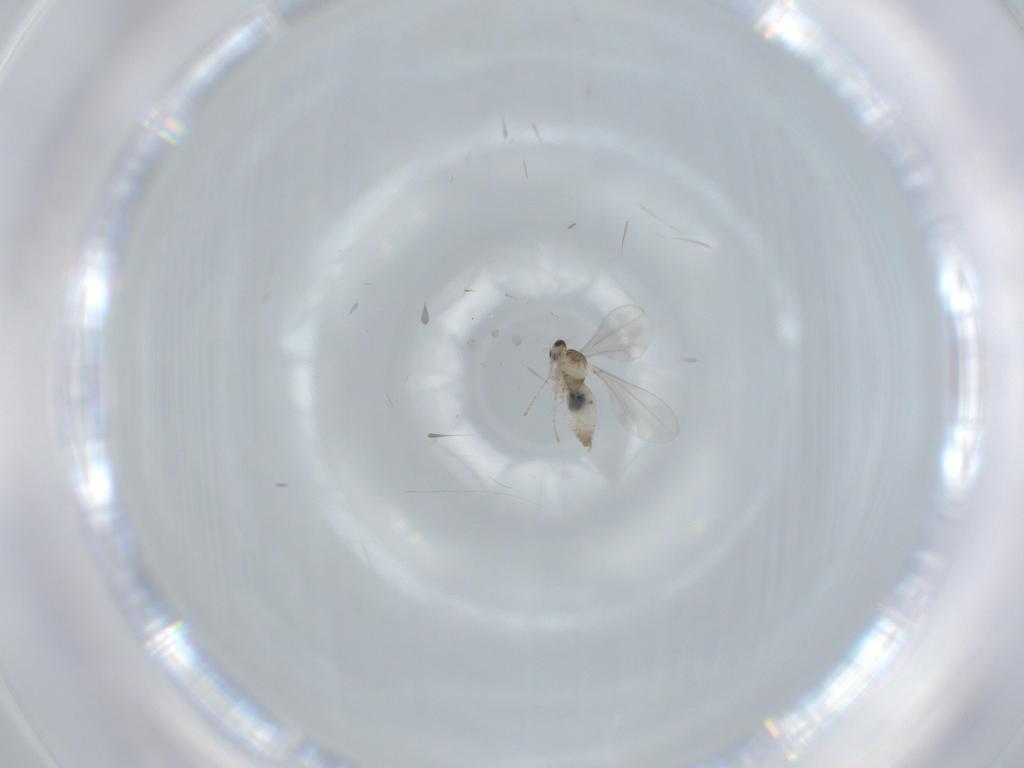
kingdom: Animalia
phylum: Arthropoda
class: Insecta
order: Diptera
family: Cecidomyiidae
